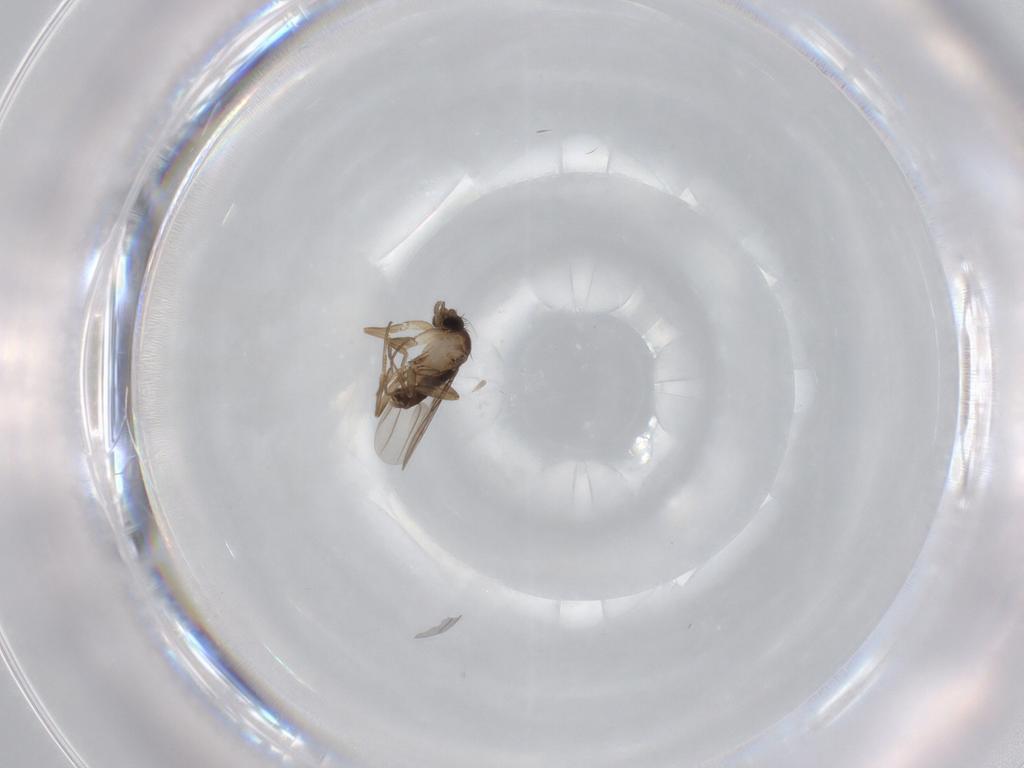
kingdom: Animalia
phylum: Arthropoda
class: Insecta
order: Diptera
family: Phoridae
